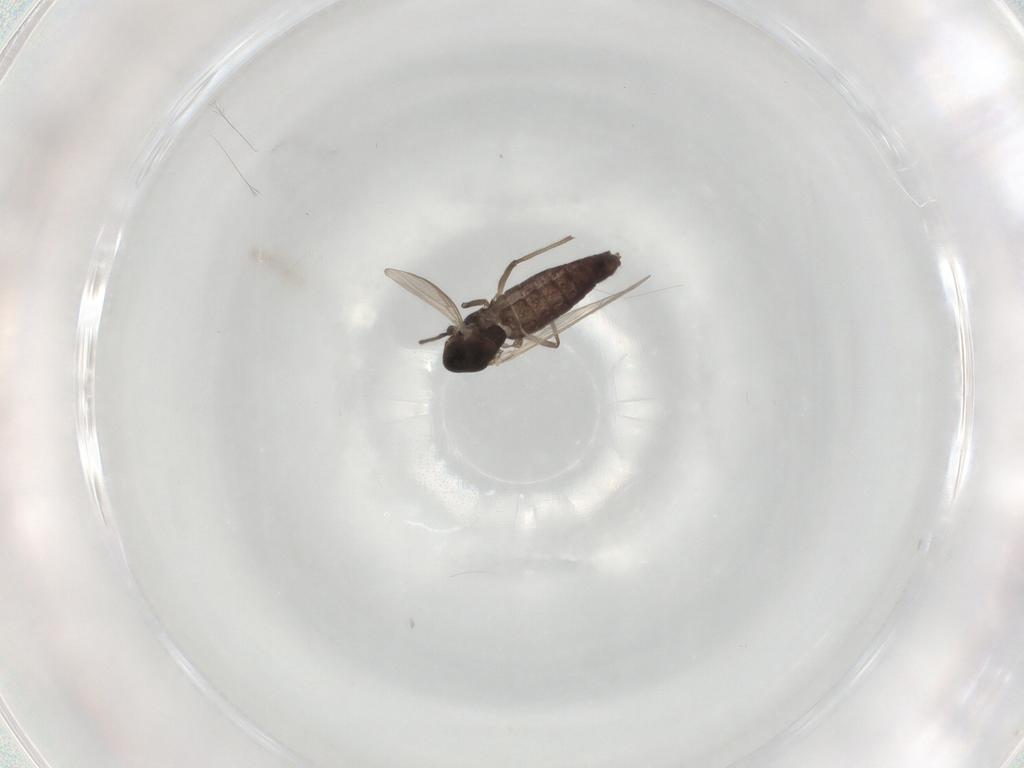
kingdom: Animalia
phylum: Arthropoda
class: Insecta
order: Diptera
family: Chironomidae
